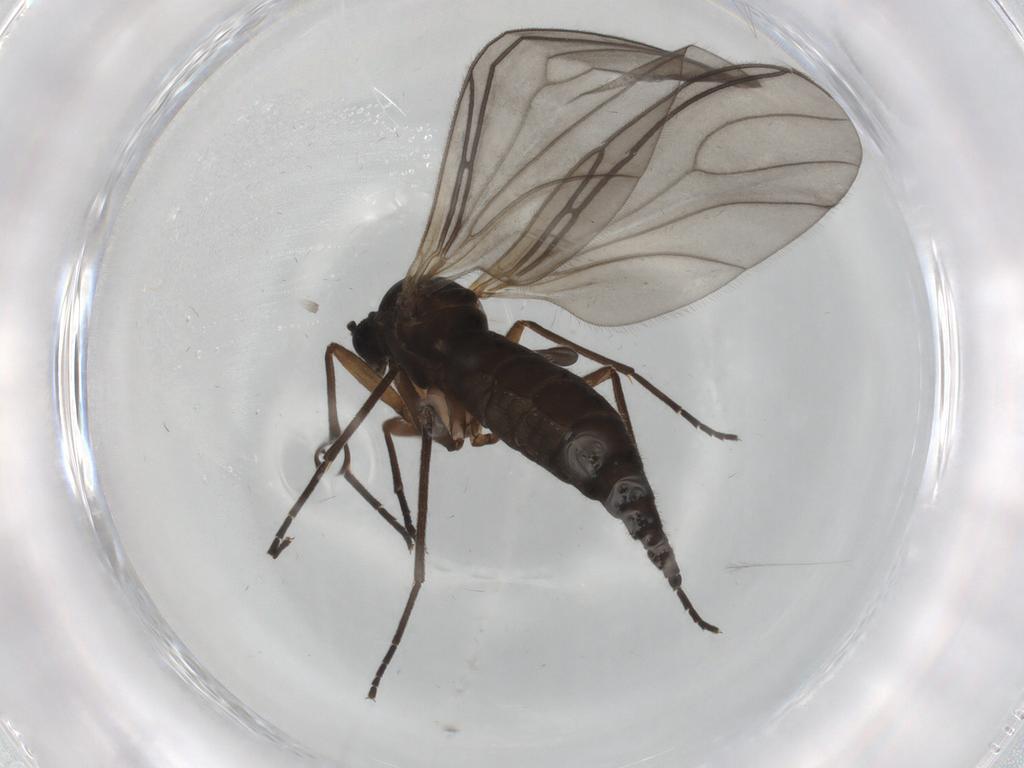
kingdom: Animalia
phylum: Arthropoda
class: Insecta
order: Diptera
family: Sciaridae
